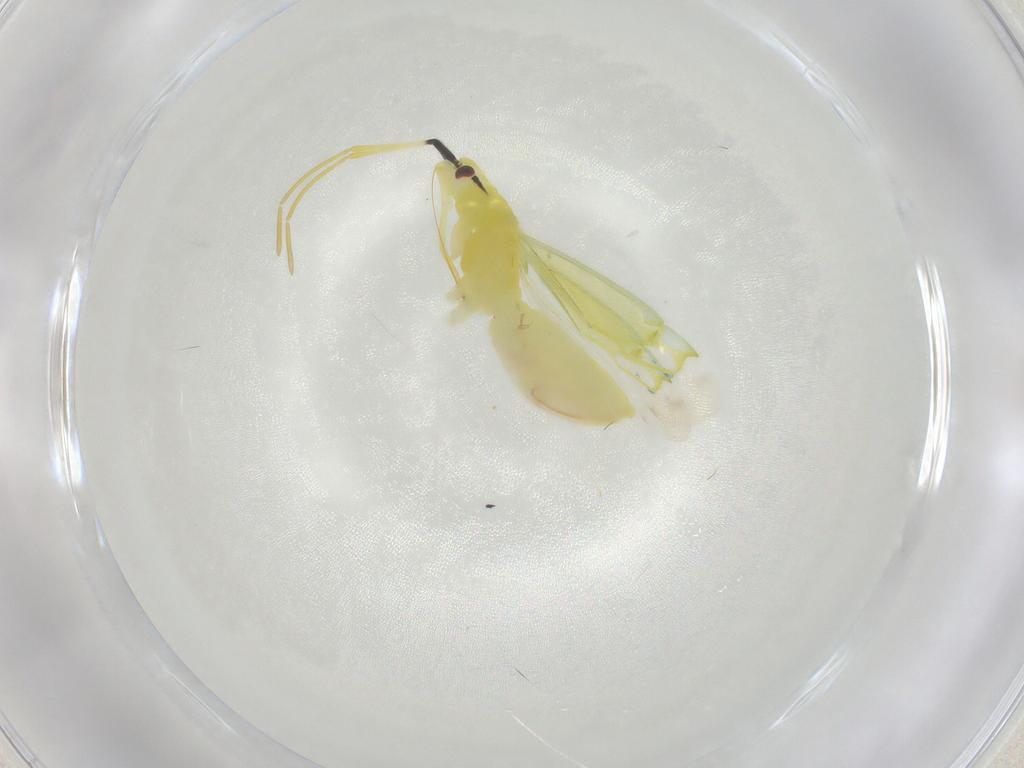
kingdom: Animalia
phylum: Arthropoda
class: Insecta
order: Hemiptera
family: Miridae
